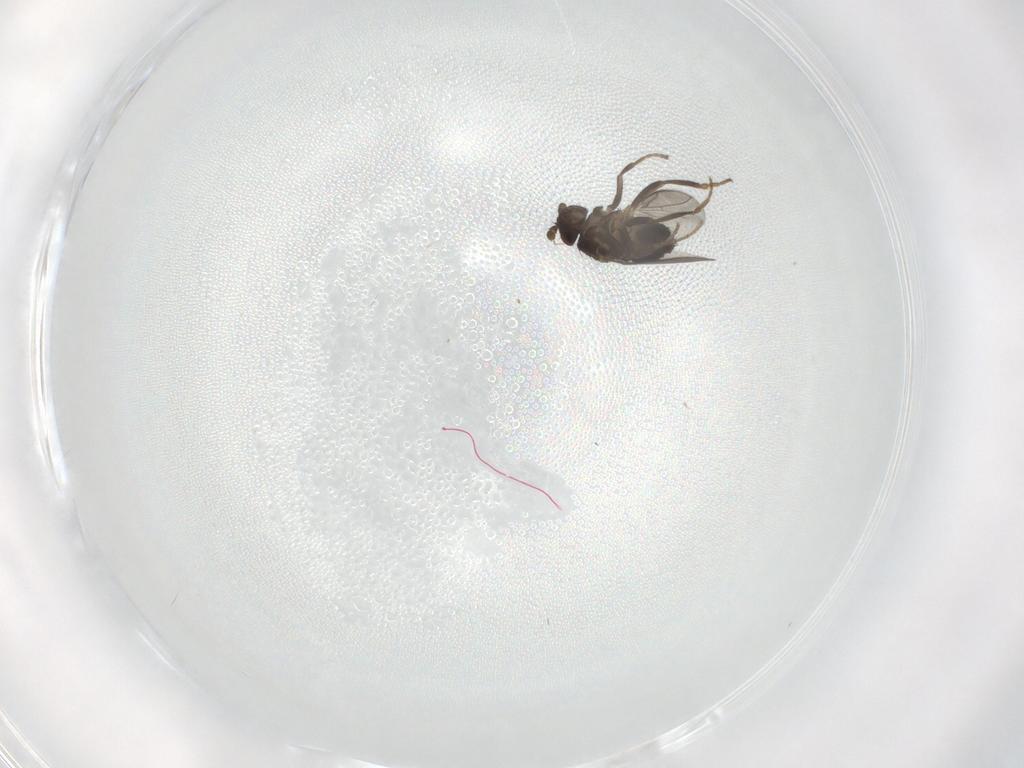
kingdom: Animalia
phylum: Arthropoda
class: Insecta
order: Diptera
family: Sphaeroceridae
